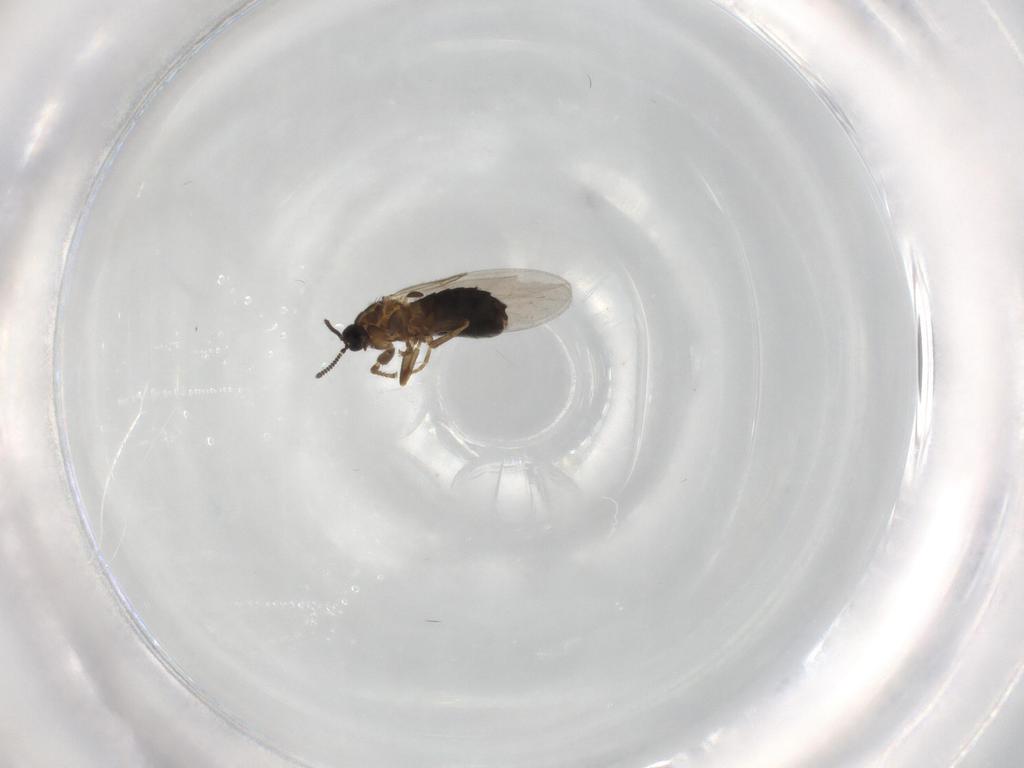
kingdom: Animalia
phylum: Arthropoda
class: Insecta
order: Diptera
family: Scatopsidae
